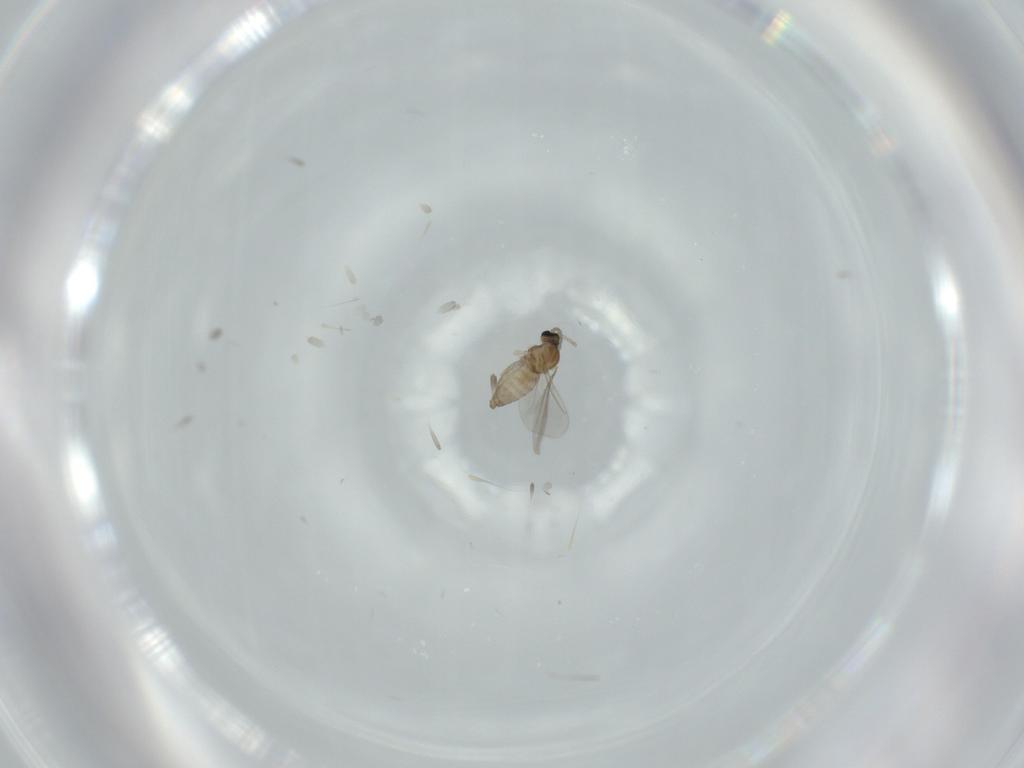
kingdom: Animalia
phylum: Arthropoda
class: Insecta
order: Diptera
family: Cecidomyiidae
